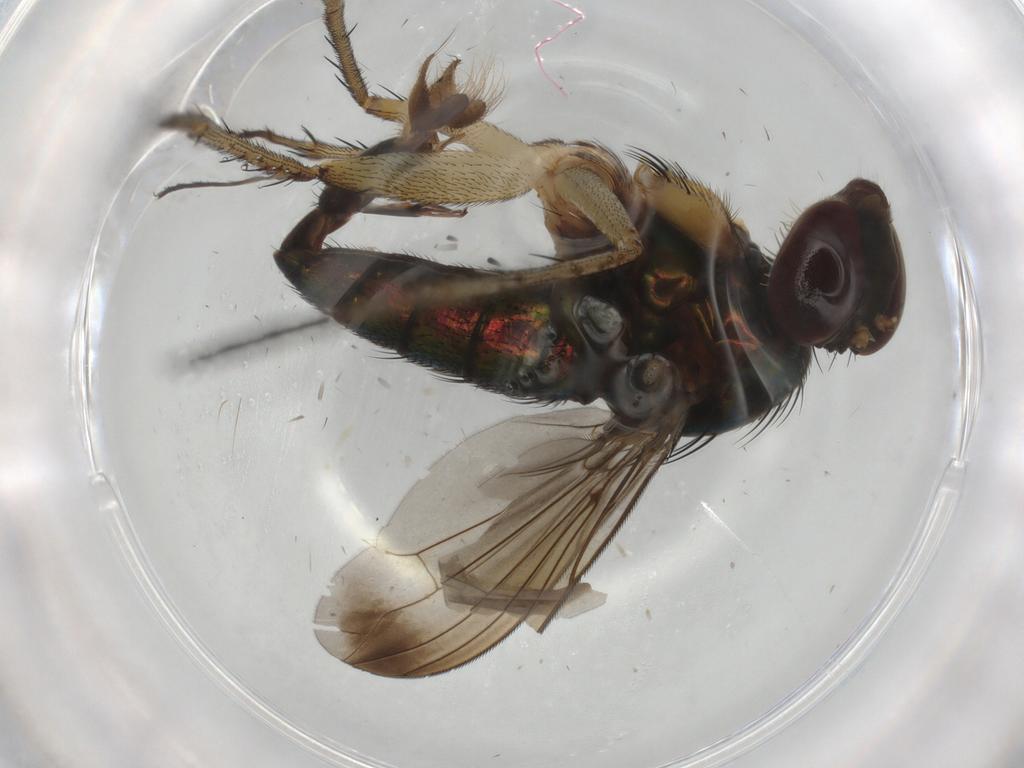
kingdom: Animalia
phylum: Arthropoda
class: Insecta
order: Diptera
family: Dolichopodidae
